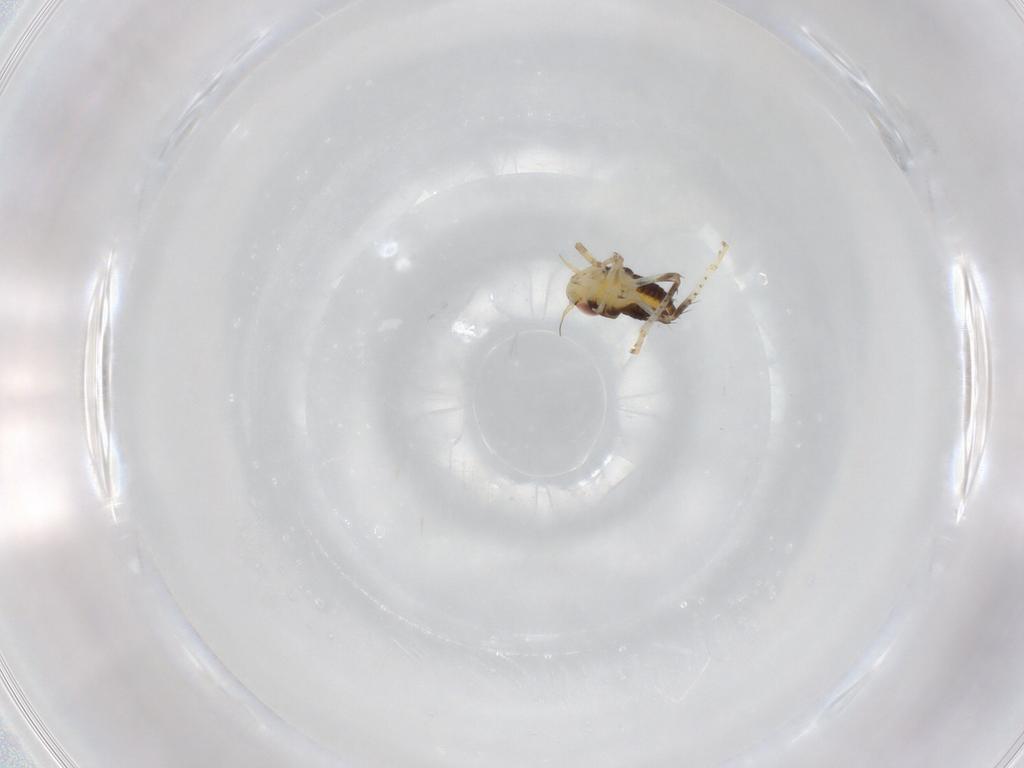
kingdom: Animalia
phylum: Arthropoda
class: Insecta
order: Hemiptera
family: Cicadellidae
